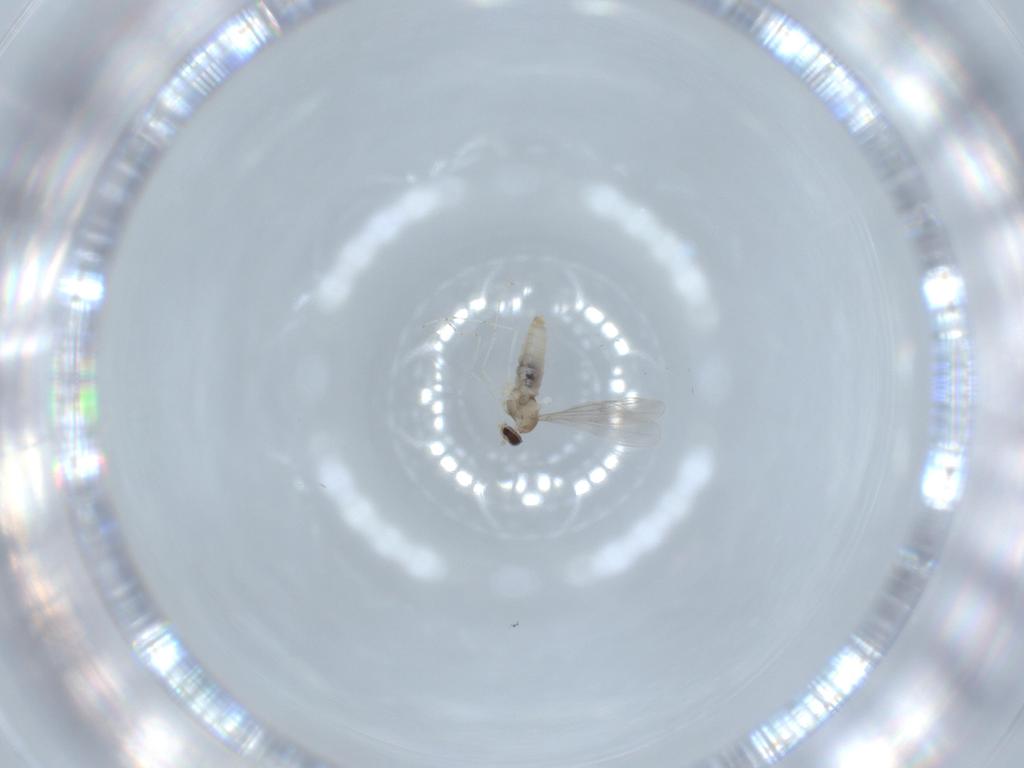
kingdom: Animalia
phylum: Arthropoda
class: Insecta
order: Diptera
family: Cecidomyiidae
